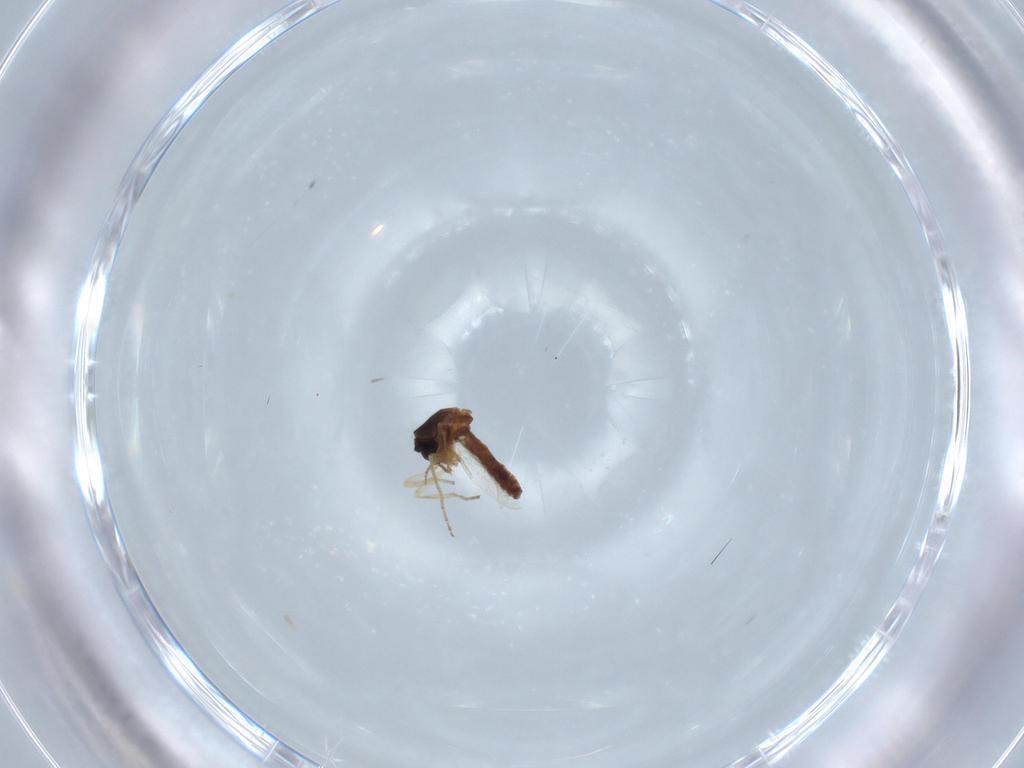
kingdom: Animalia
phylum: Arthropoda
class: Insecta
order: Diptera
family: Ceratopogonidae
